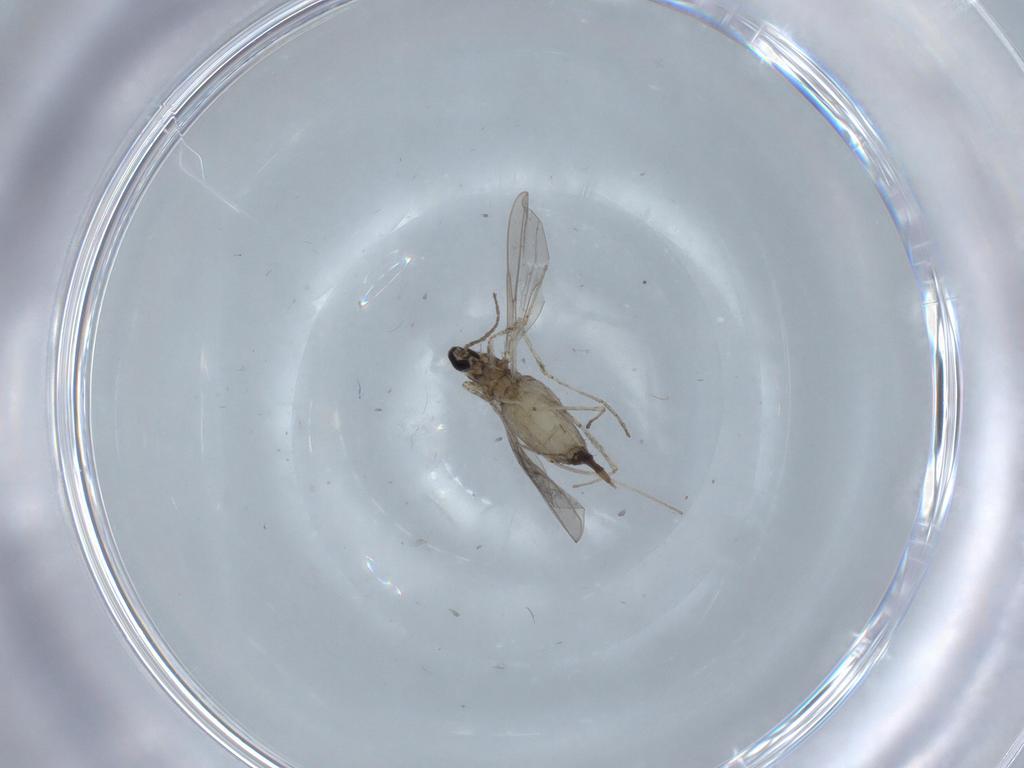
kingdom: Animalia
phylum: Arthropoda
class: Insecta
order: Diptera
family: Cecidomyiidae
